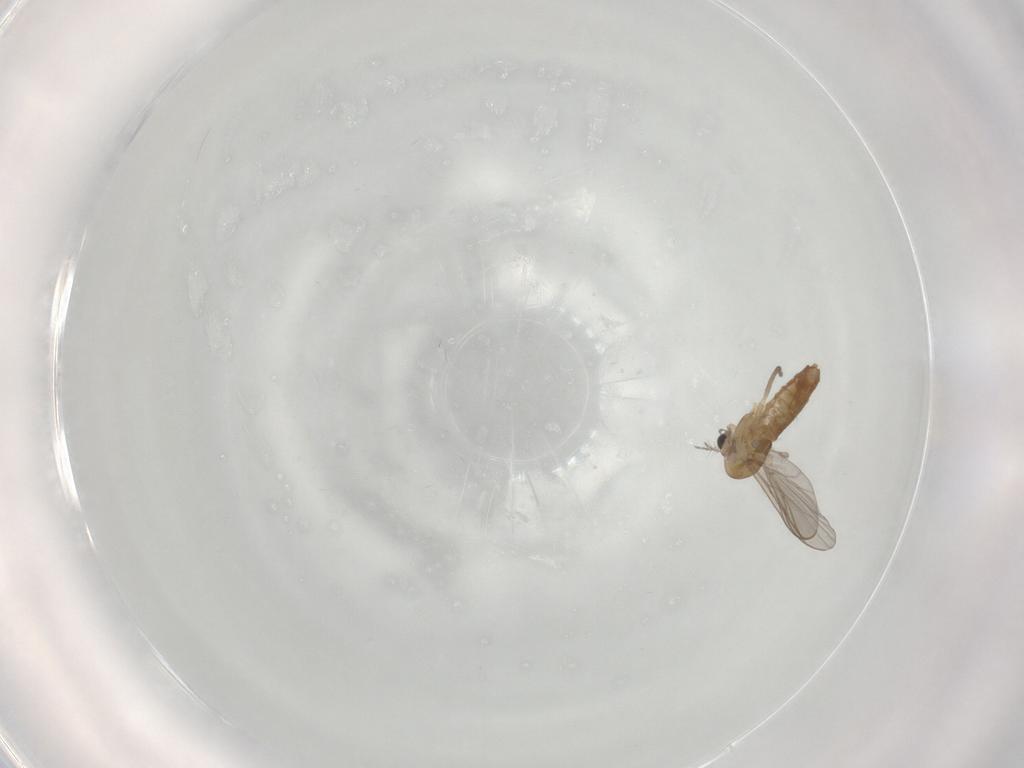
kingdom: Animalia
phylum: Arthropoda
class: Insecta
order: Diptera
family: Chironomidae
